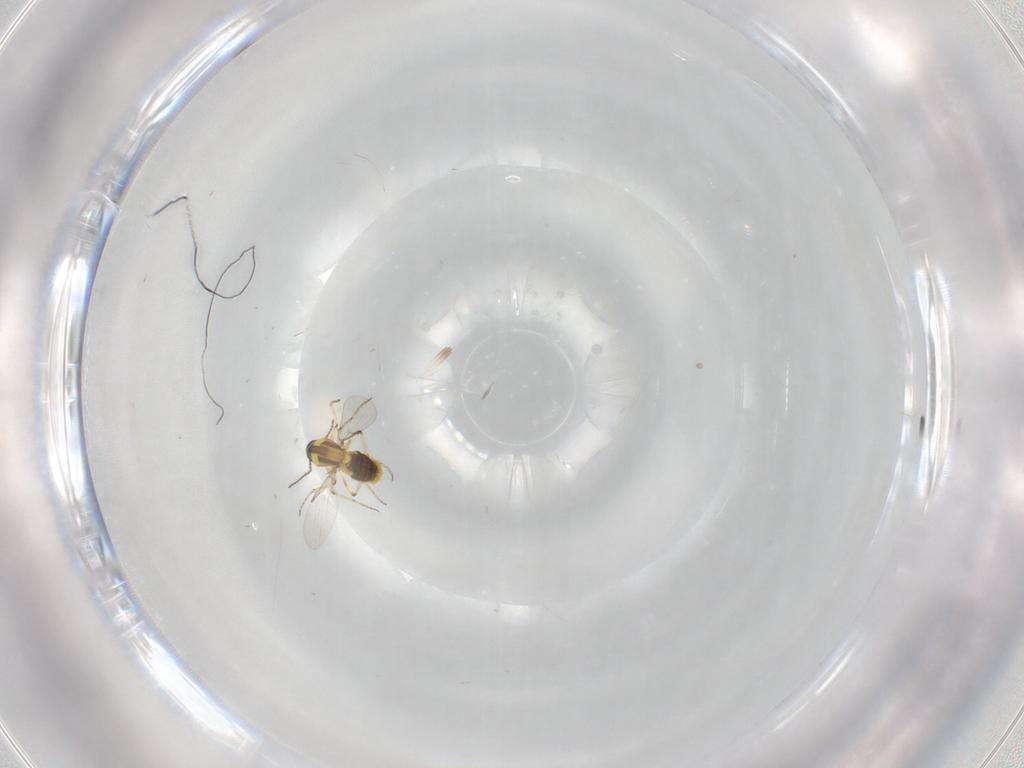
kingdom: Animalia
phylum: Arthropoda
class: Insecta
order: Diptera
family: Ceratopogonidae
